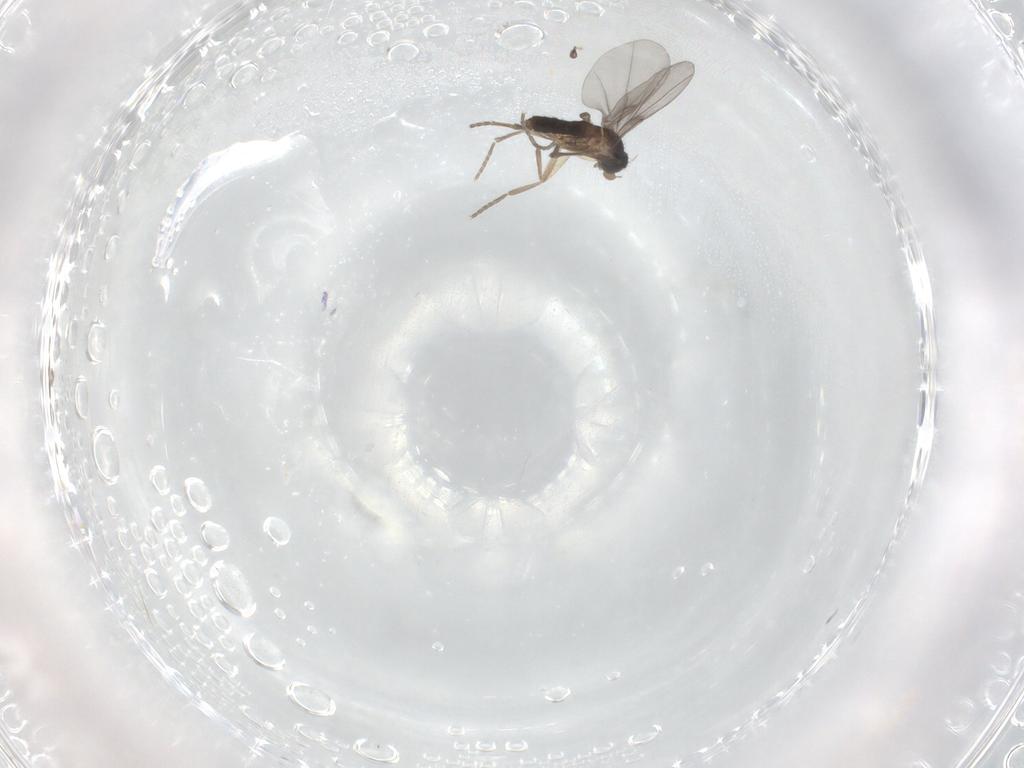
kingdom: Animalia
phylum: Arthropoda
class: Insecta
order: Diptera
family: Phoridae
